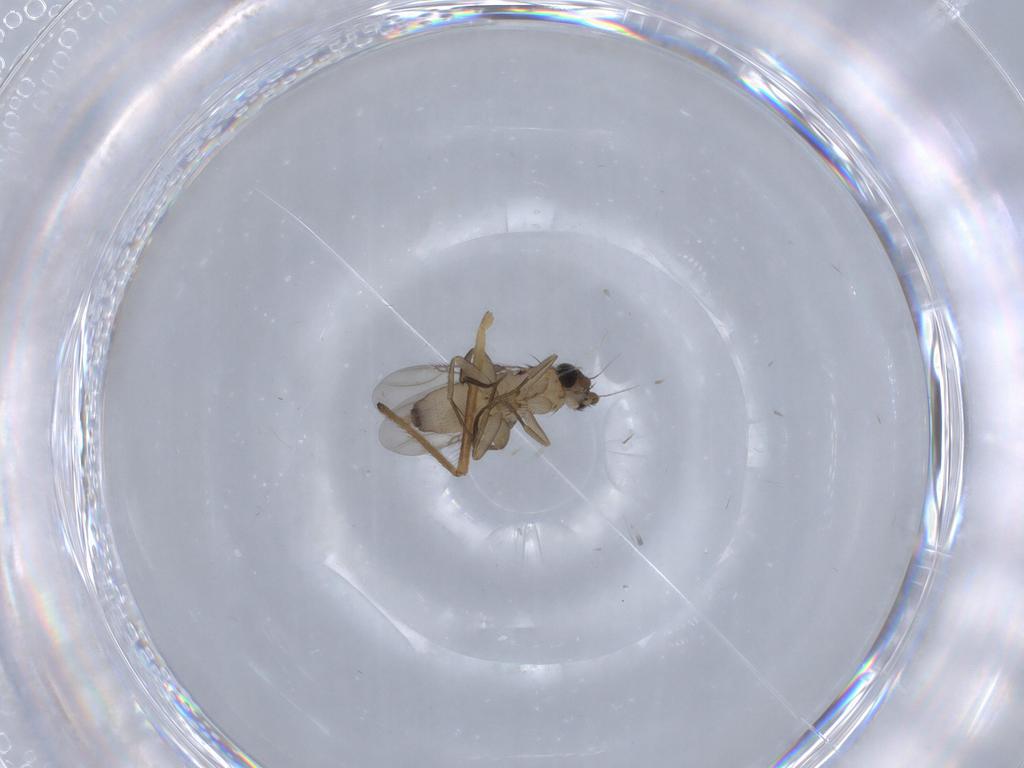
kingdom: Animalia
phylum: Arthropoda
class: Insecta
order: Diptera
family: Phoridae
